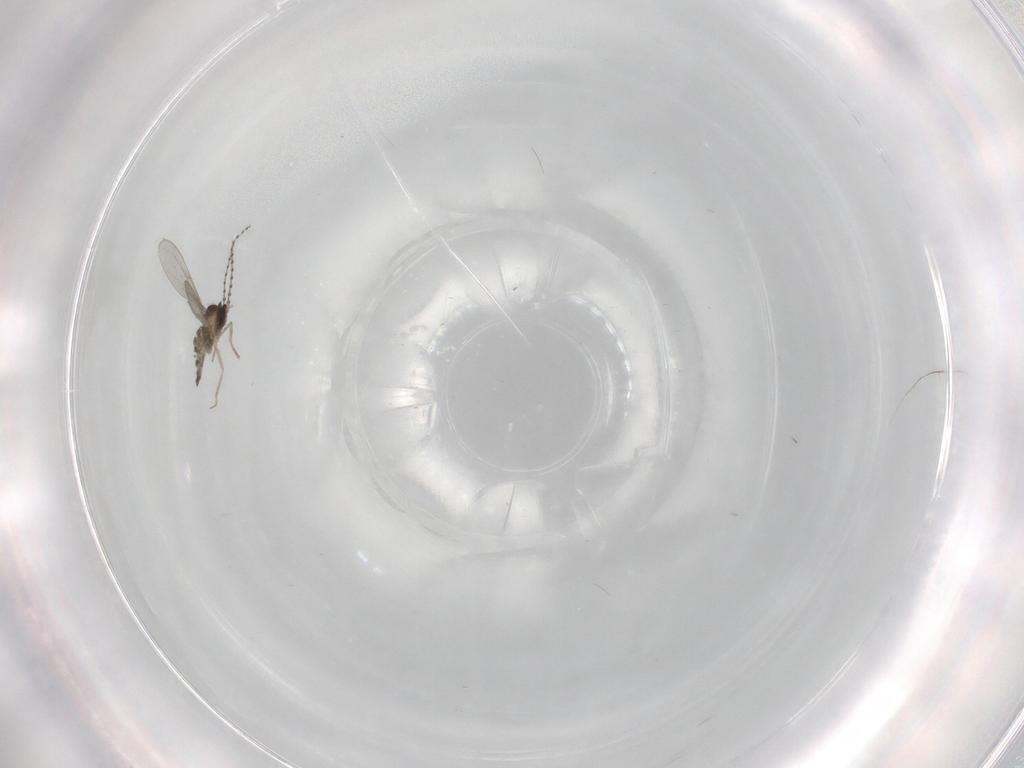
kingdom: Animalia
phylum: Arthropoda
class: Insecta
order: Diptera
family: Cecidomyiidae
